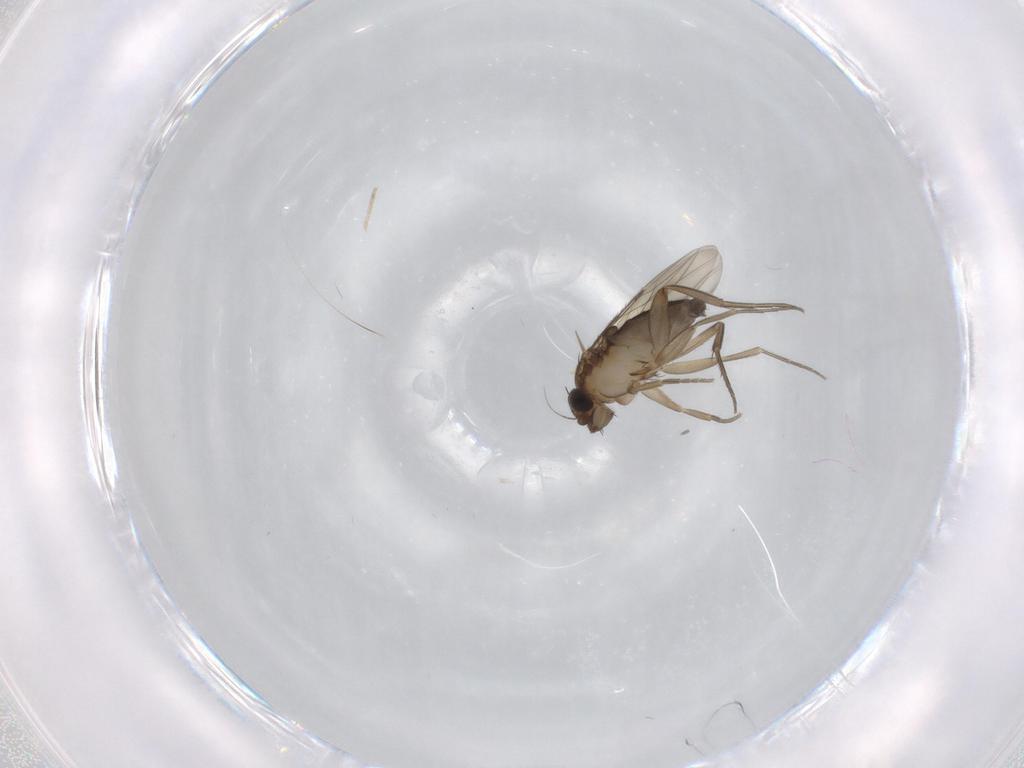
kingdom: Animalia
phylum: Arthropoda
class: Insecta
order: Diptera
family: Phoridae
